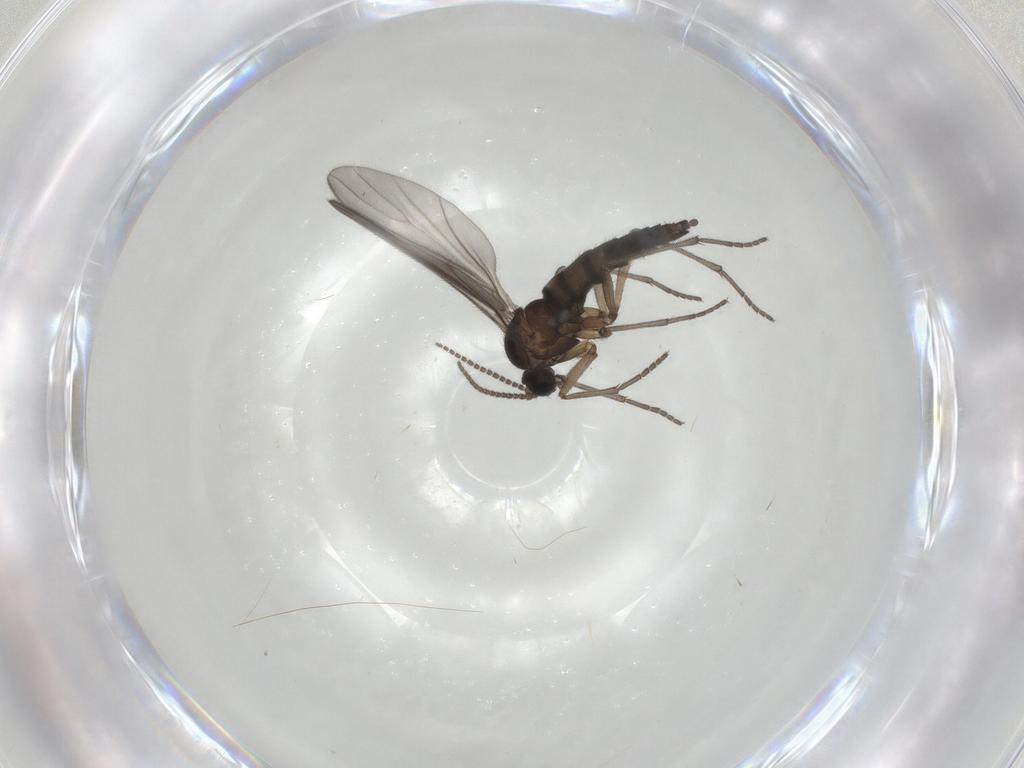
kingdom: Animalia
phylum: Arthropoda
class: Insecta
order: Diptera
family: Sciaridae
